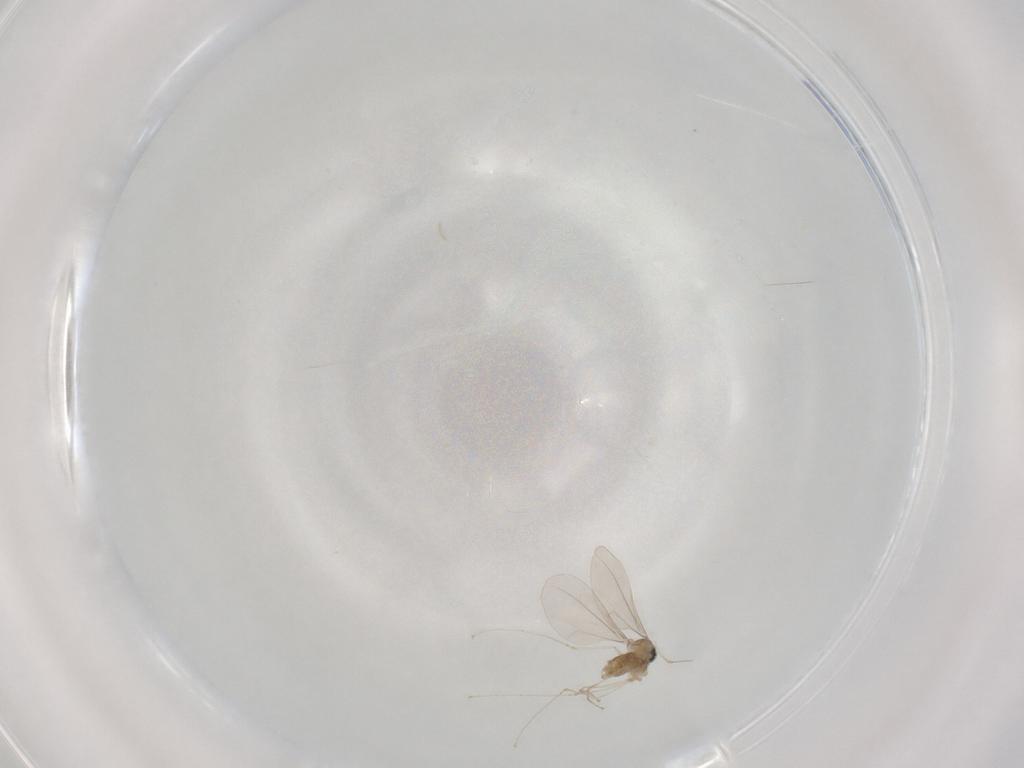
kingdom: Animalia
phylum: Arthropoda
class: Insecta
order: Diptera
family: Cecidomyiidae
